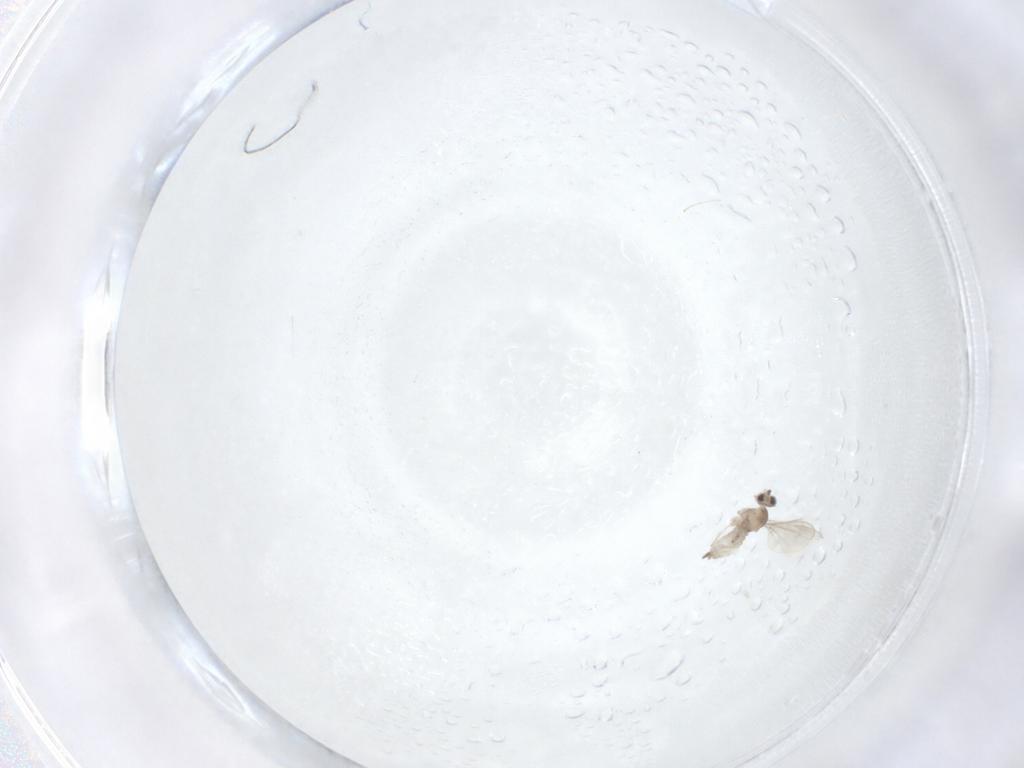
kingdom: Animalia
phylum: Arthropoda
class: Insecta
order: Diptera
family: Cecidomyiidae
